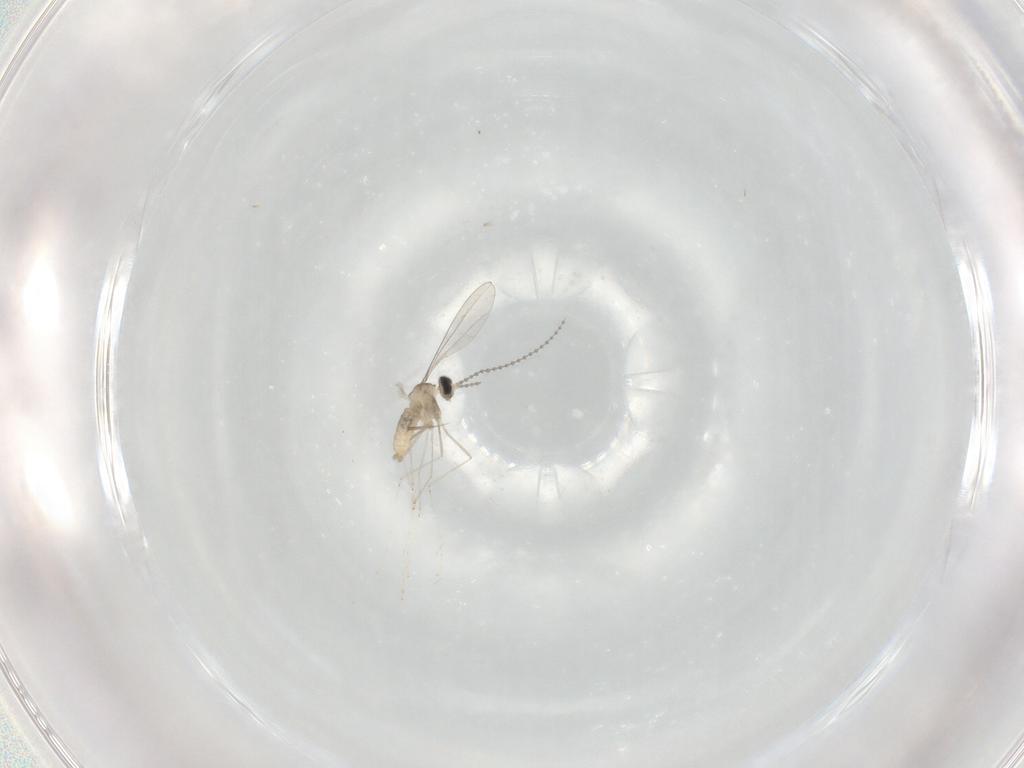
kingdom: Animalia
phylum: Arthropoda
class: Insecta
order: Diptera
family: Cecidomyiidae
